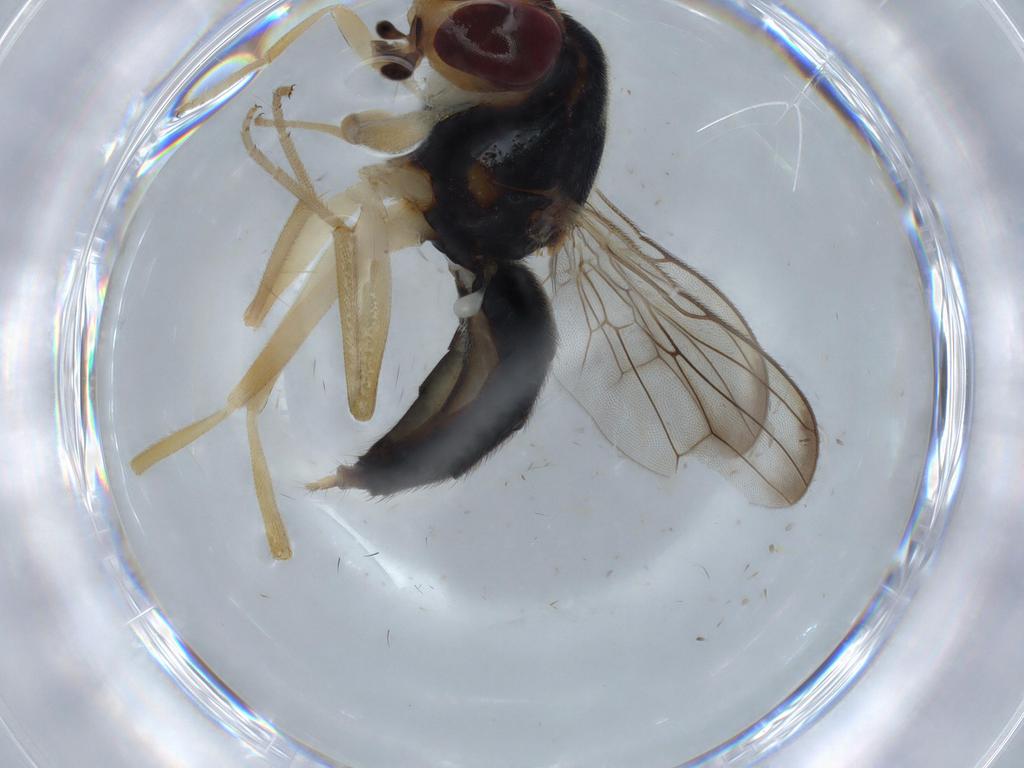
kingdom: Animalia
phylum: Arthropoda
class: Insecta
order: Diptera
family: Psilidae
